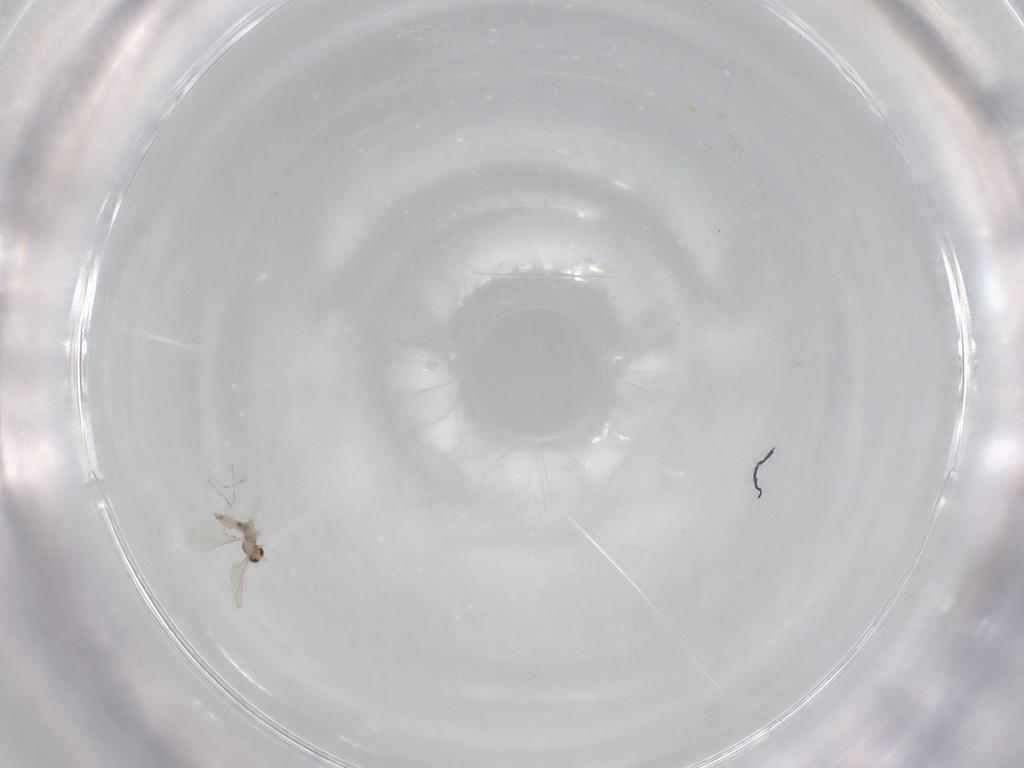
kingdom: Animalia
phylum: Arthropoda
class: Insecta
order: Diptera
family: Cecidomyiidae
